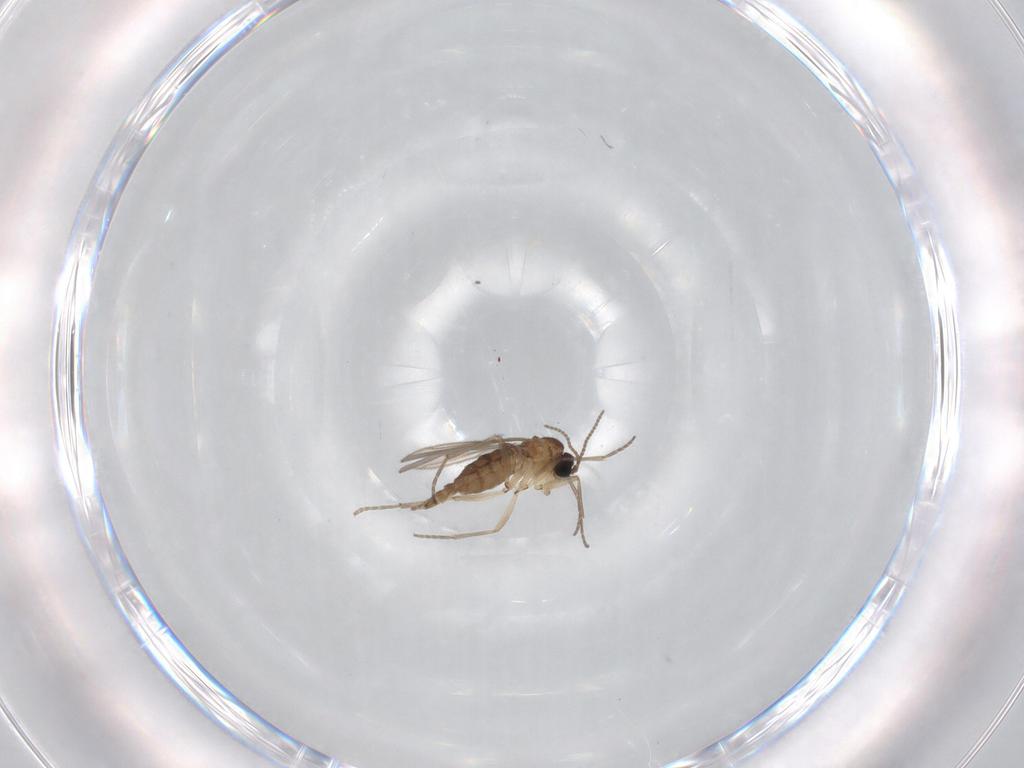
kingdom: Animalia
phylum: Arthropoda
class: Insecta
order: Diptera
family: Sciaridae
